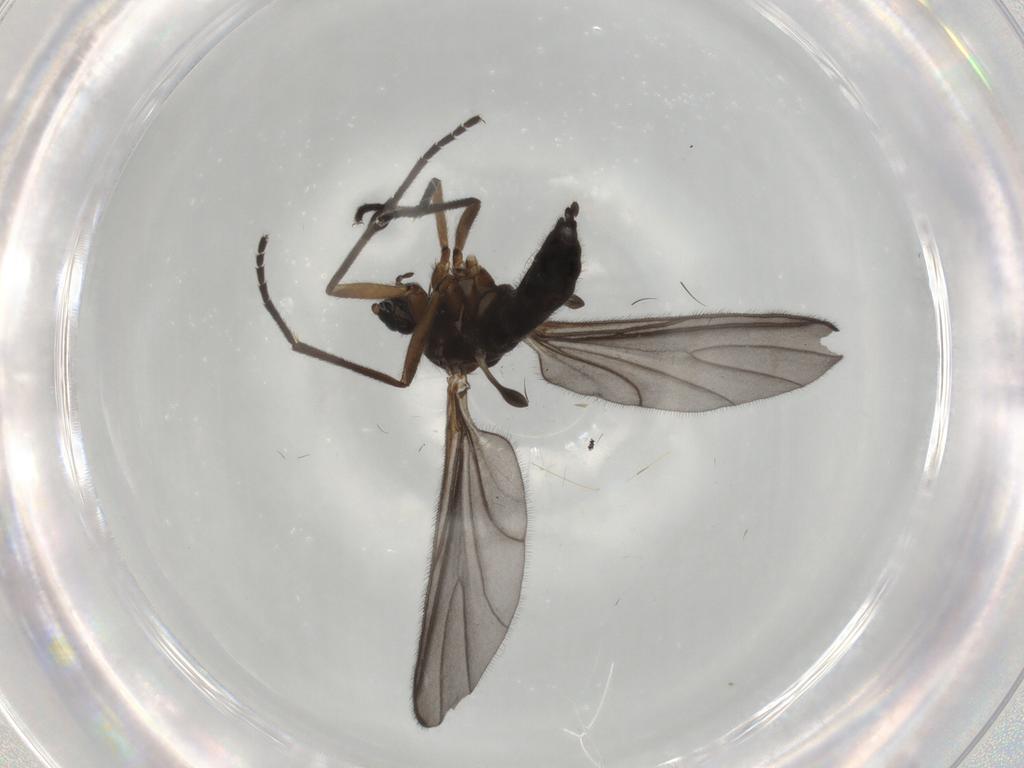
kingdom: Animalia
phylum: Arthropoda
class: Insecta
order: Diptera
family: Sciaridae
